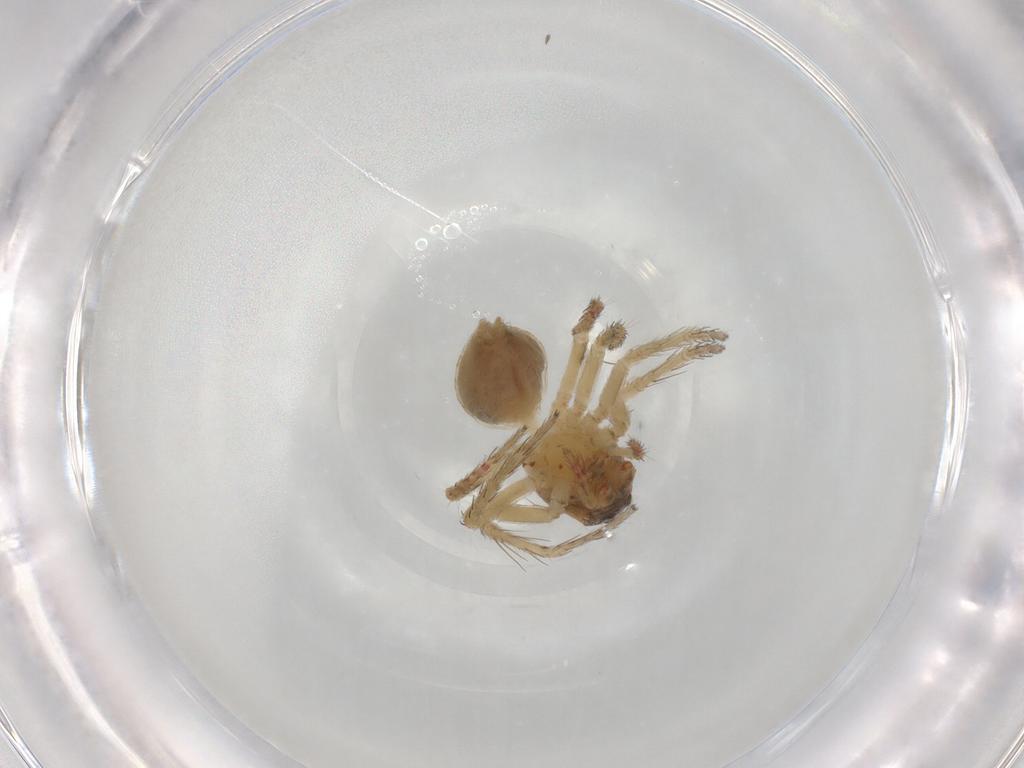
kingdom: Animalia
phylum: Arthropoda
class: Arachnida
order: Araneae
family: Oxyopidae
